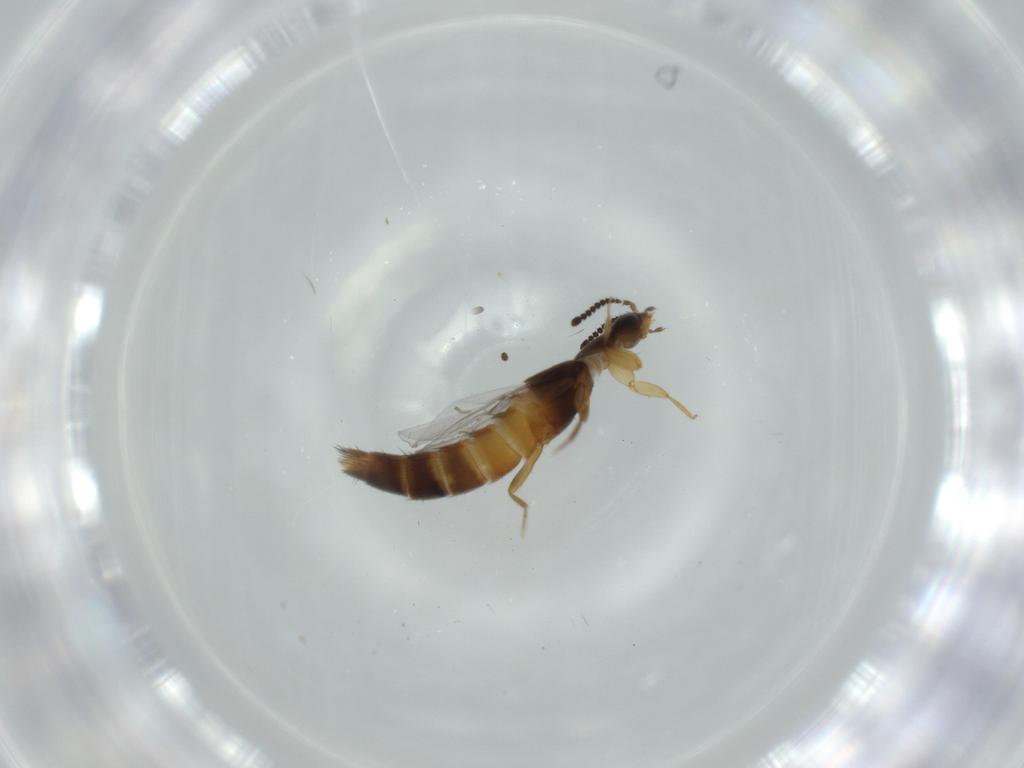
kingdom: Animalia
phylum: Arthropoda
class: Insecta
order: Coleoptera
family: Staphylinidae
